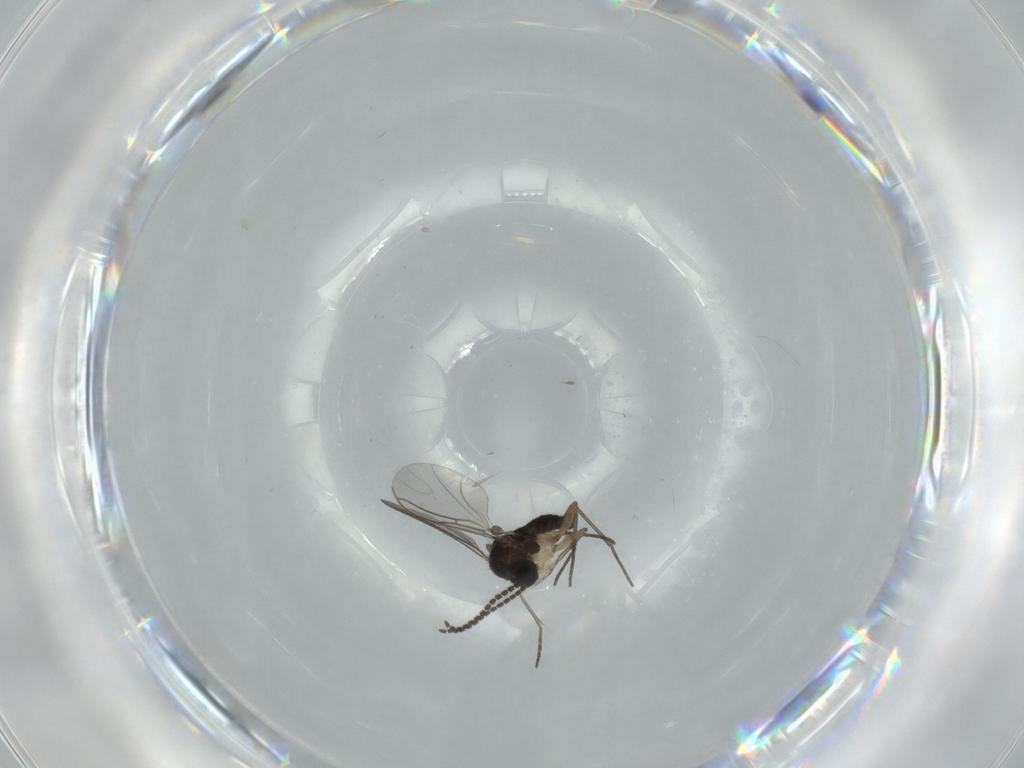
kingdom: Animalia
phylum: Arthropoda
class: Insecta
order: Diptera
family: Sciaridae
